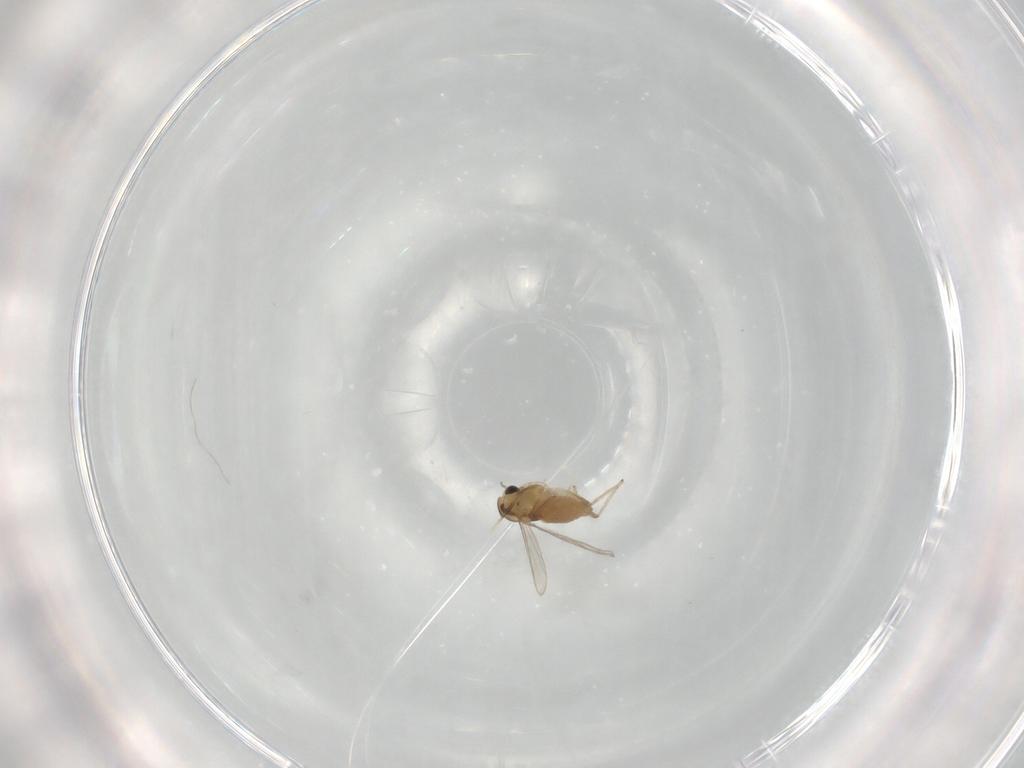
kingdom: Animalia
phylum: Arthropoda
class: Insecta
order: Diptera
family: Chironomidae
